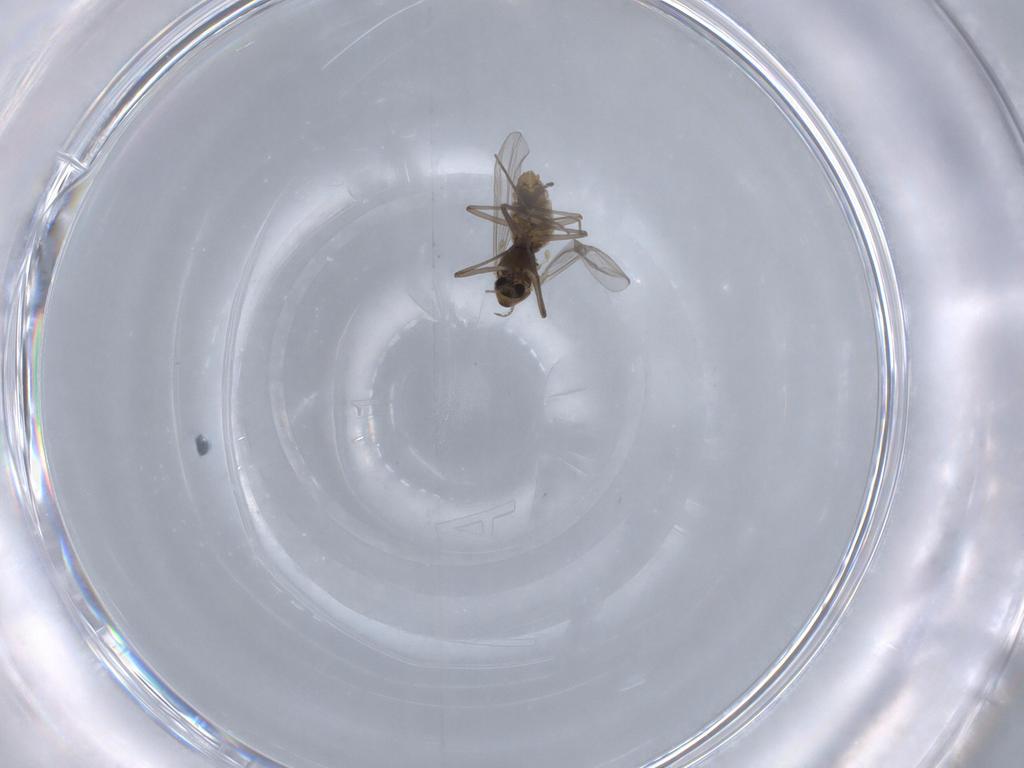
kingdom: Animalia
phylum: Arthropoda
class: Insecta
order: Diptera
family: Chironomidae
